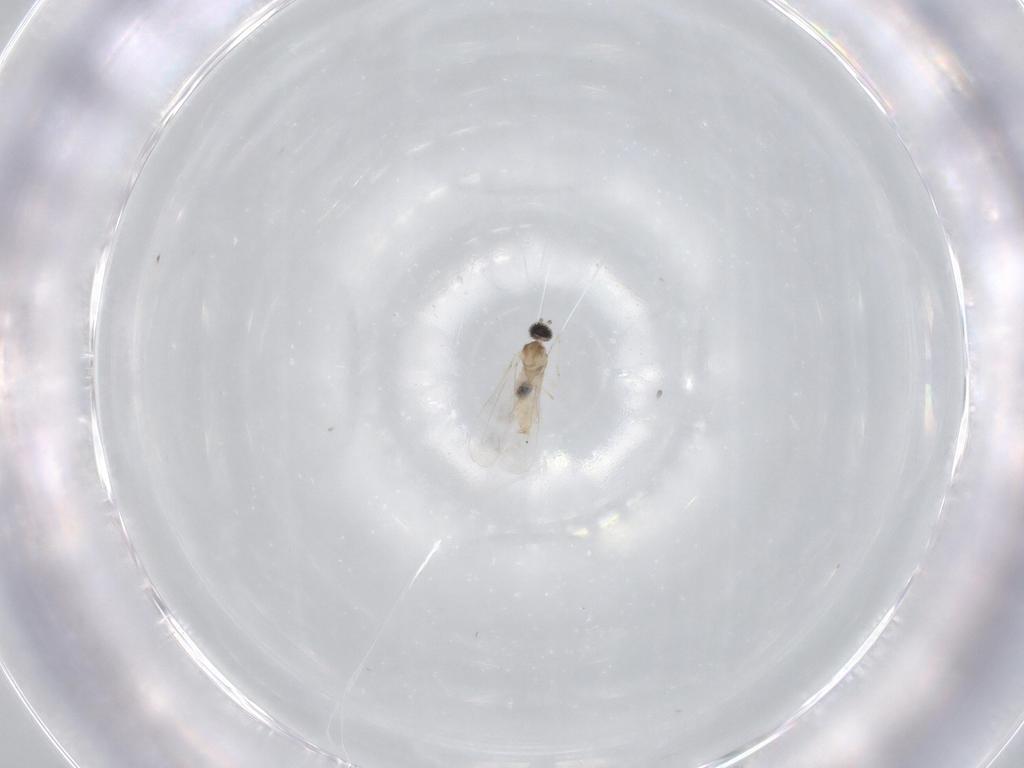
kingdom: Animalia
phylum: Arthropoda
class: Insecta
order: Diptera
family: Cecidomyiidae
